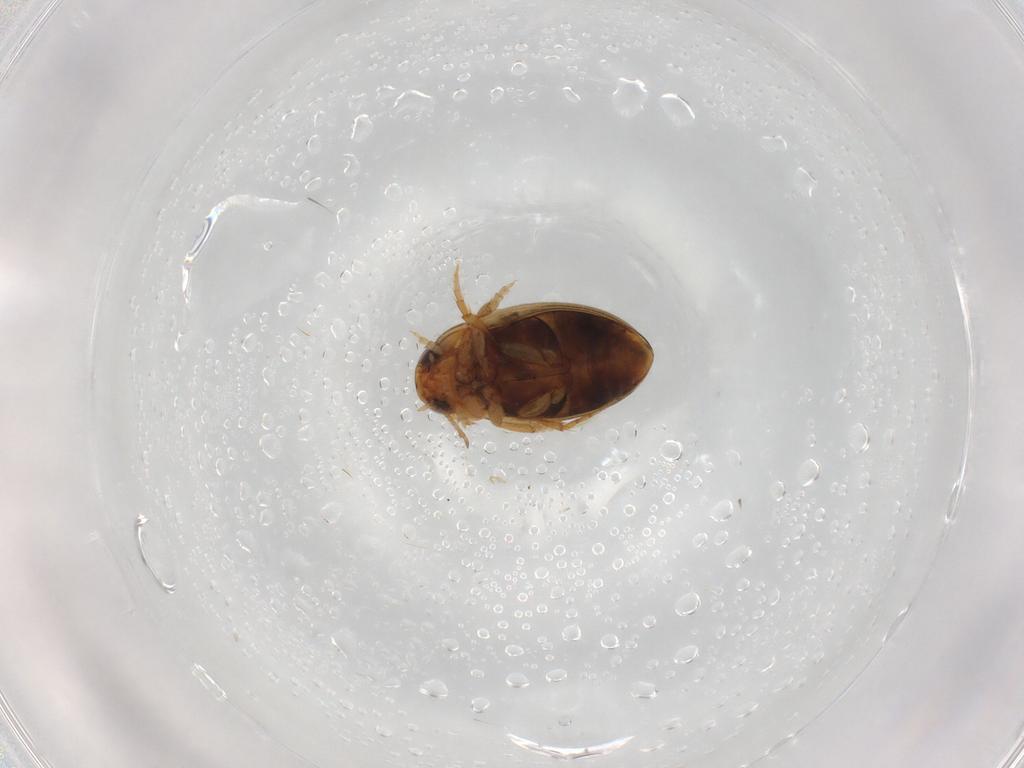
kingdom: Animalia
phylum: Arthropoda
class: Insecta
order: Coleoptera
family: Dytiscidae
